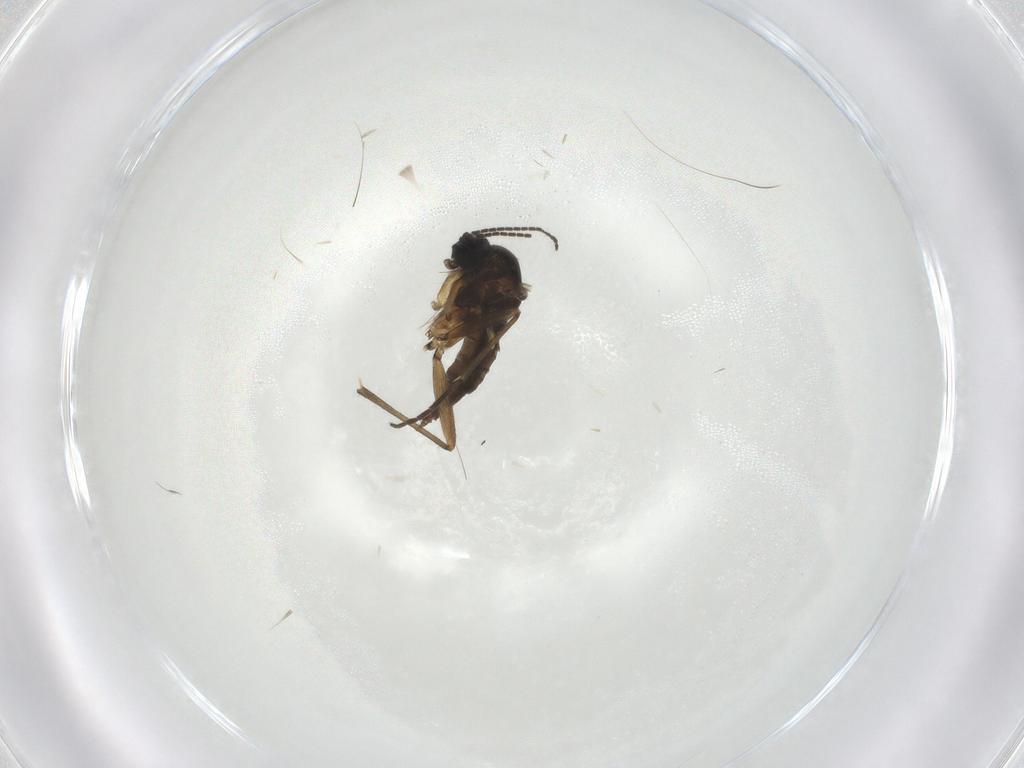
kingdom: Animalia
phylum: Arthropoda
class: Insecta
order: Diptera
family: Sciaridae
